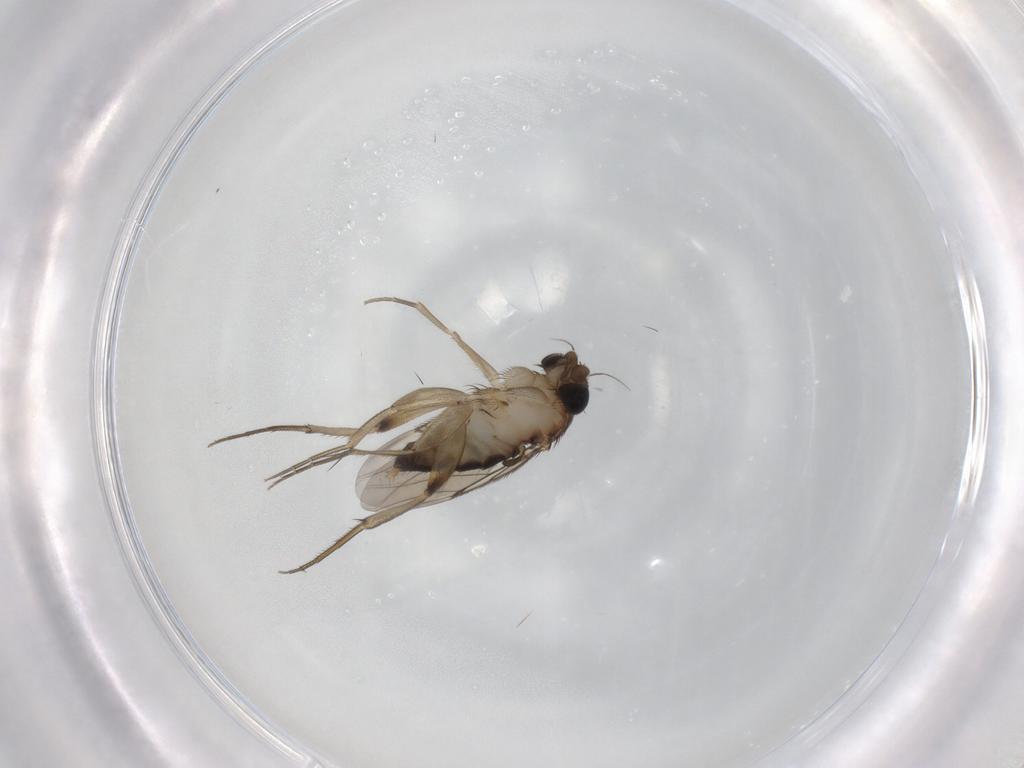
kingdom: Animalia
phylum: Arthropoda
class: Insecta
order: Diptera
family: Phoridae
